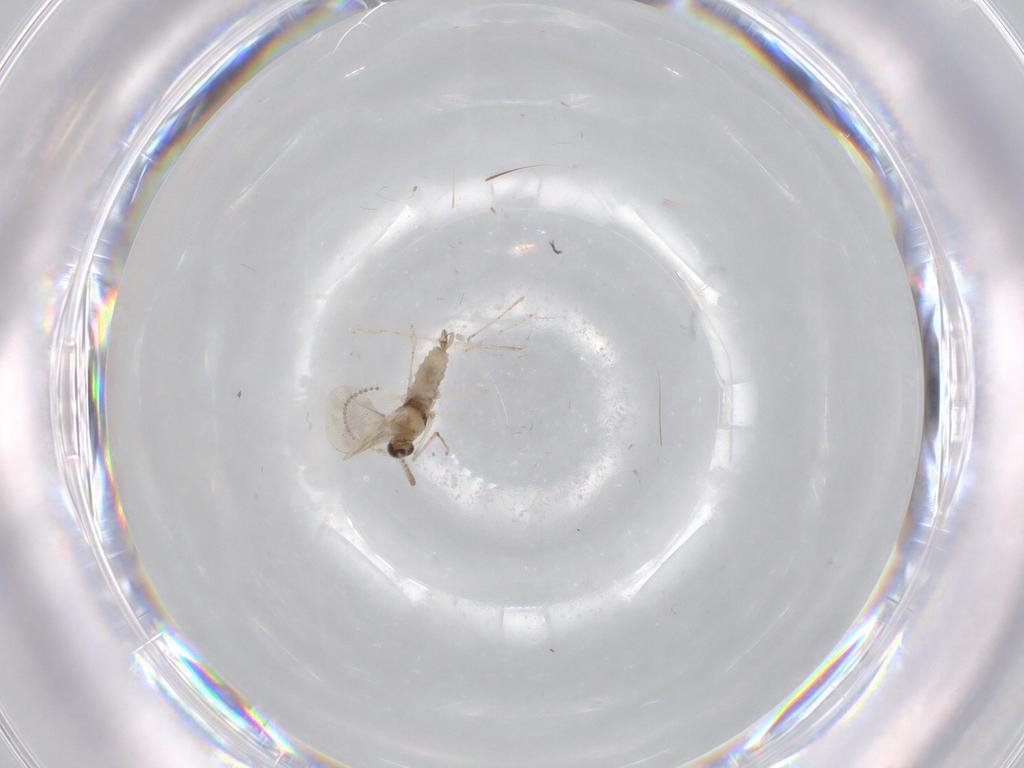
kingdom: Animalia
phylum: Arthropoda
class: Insecta
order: Diptera
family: Cecidomyiidae
